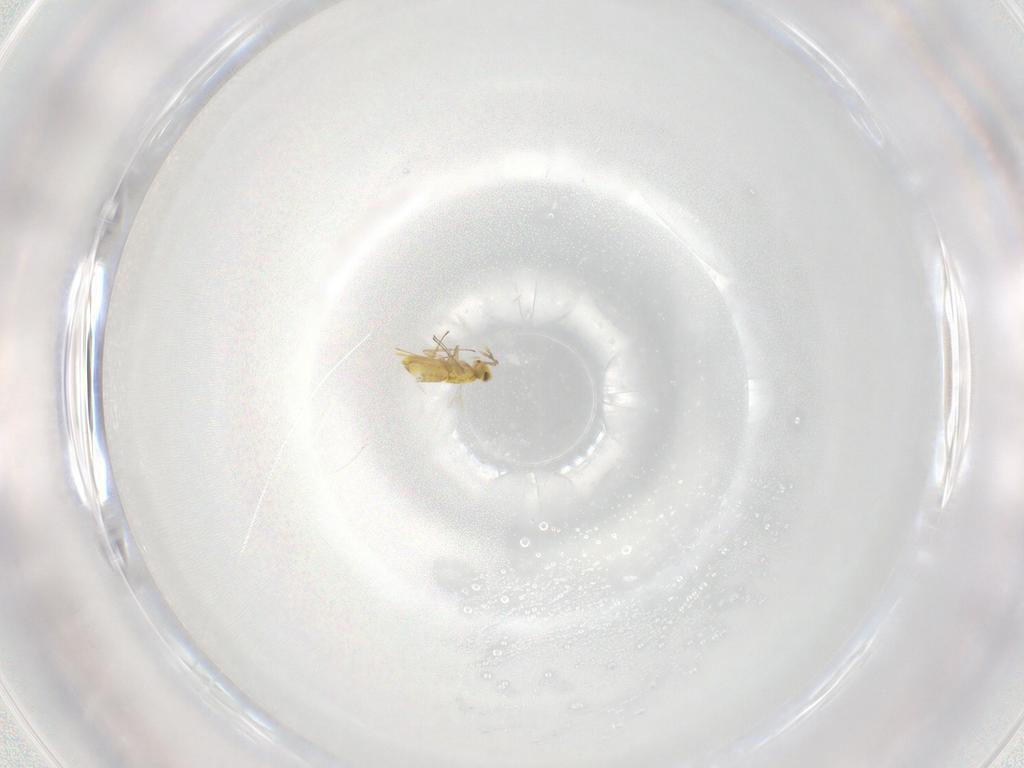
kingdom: Animalia
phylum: Arthropoda
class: Insecta
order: Hymenoptera
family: Aphelinidae
